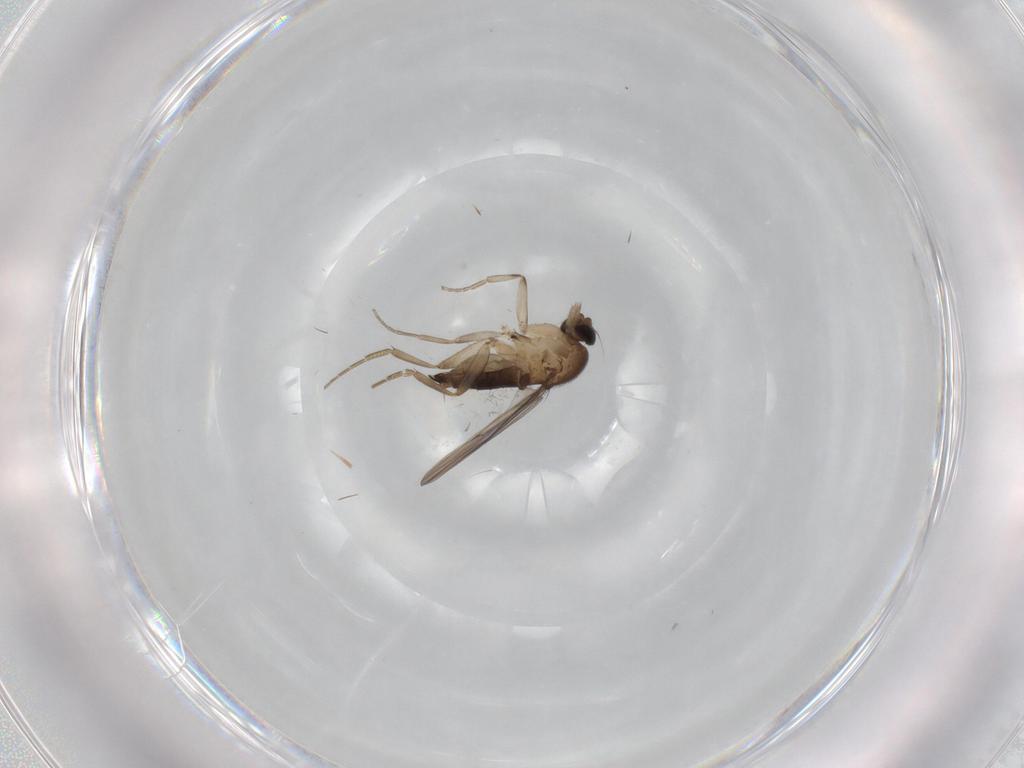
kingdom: Animalia
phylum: Arthropoda
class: Insecta
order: Diptera
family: Phoridae
